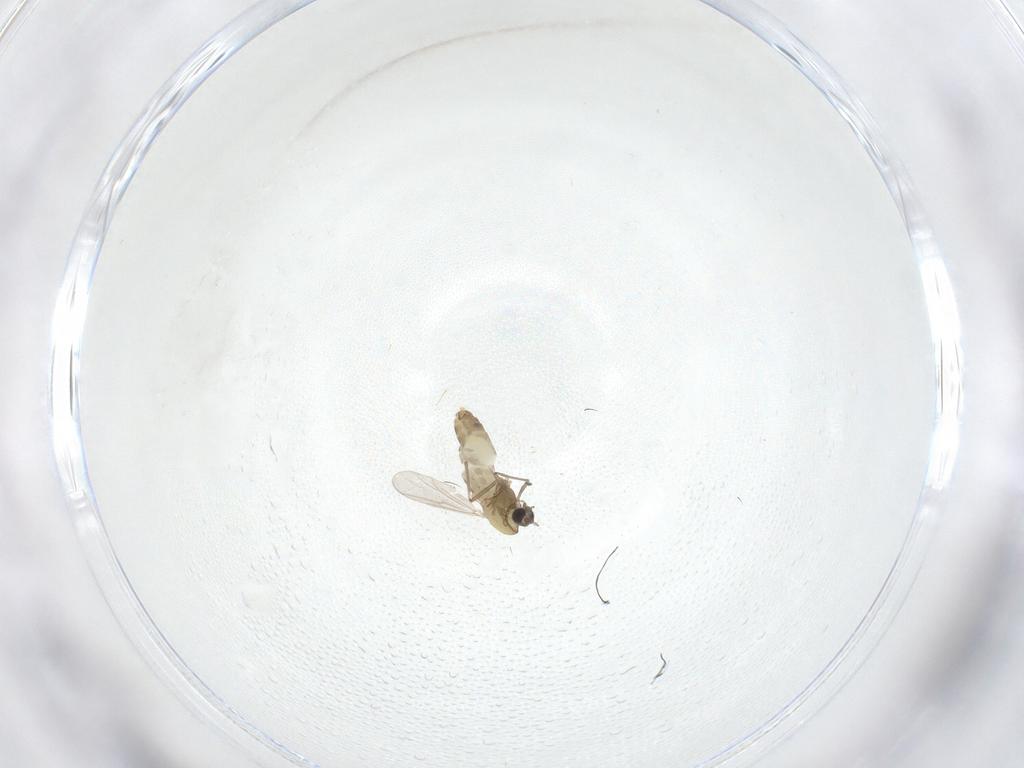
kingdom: Animalia
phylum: Arthropoda
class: Insecta
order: Diptera
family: Chironomidae
